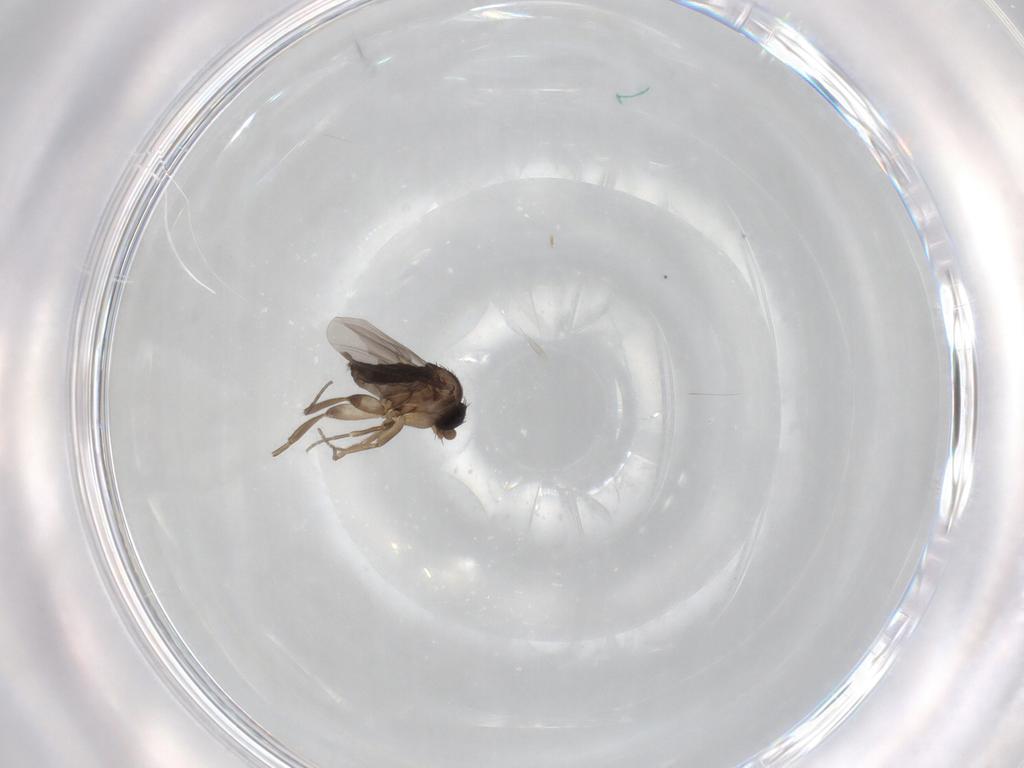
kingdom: Animalia
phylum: Arthropoda
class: Insecta
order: Diptera
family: Phoridae
